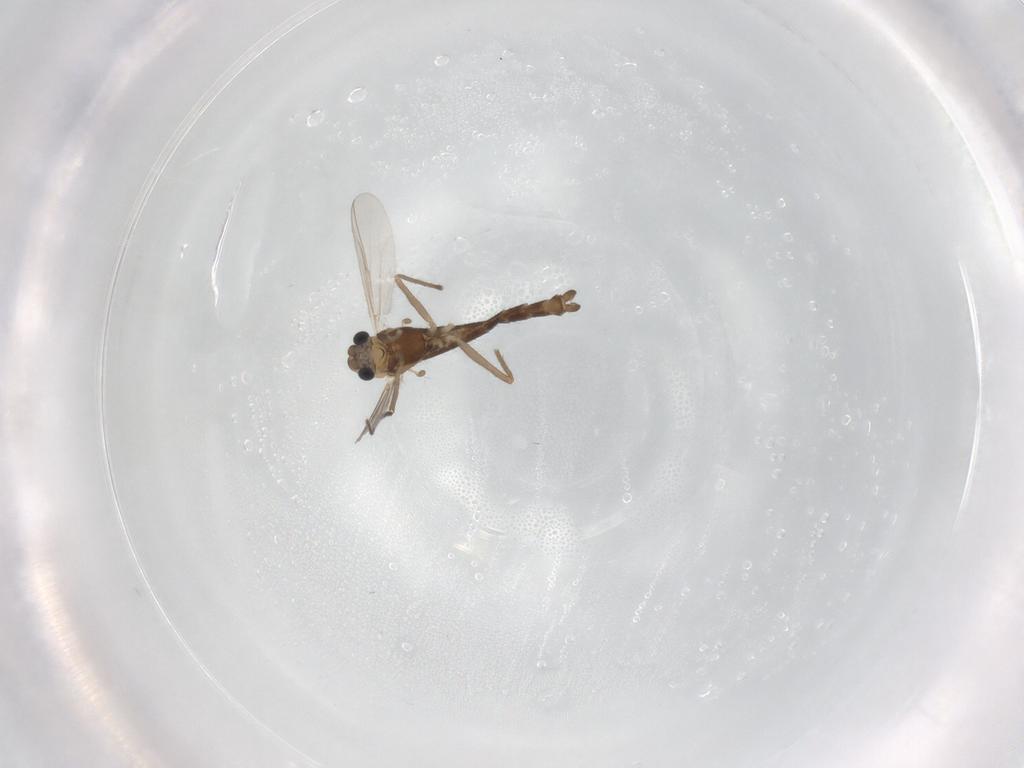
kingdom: Animalia
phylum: Arthropoda
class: Insecta
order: Diptera
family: Chironomidae
